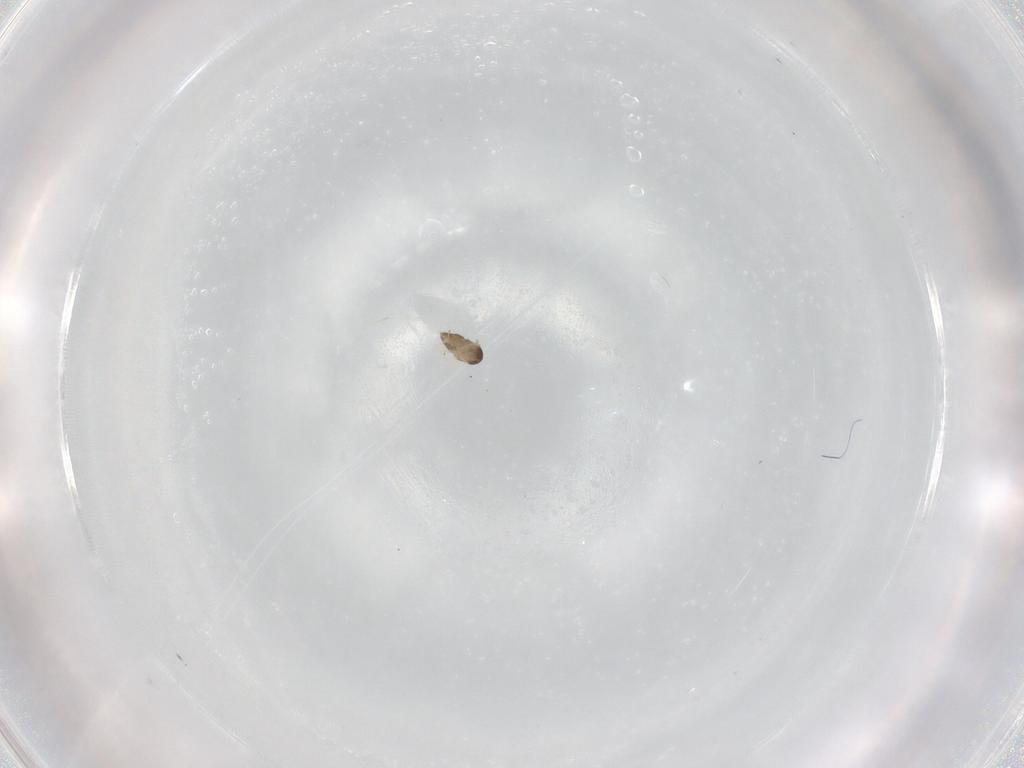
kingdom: Animalia
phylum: Arthropoda
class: Insecta
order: Hymenoptera
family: Encyrtidae
